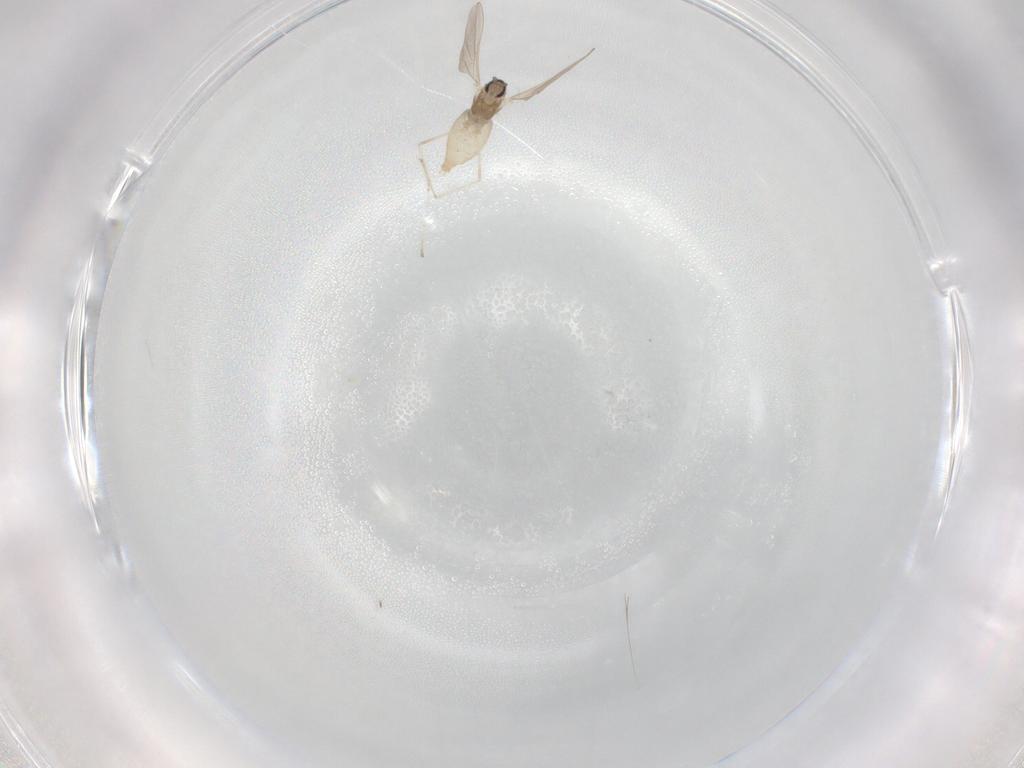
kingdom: Animalia
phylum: Arthropoda
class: Insecta
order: Diptera
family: Cecidomyiidae
